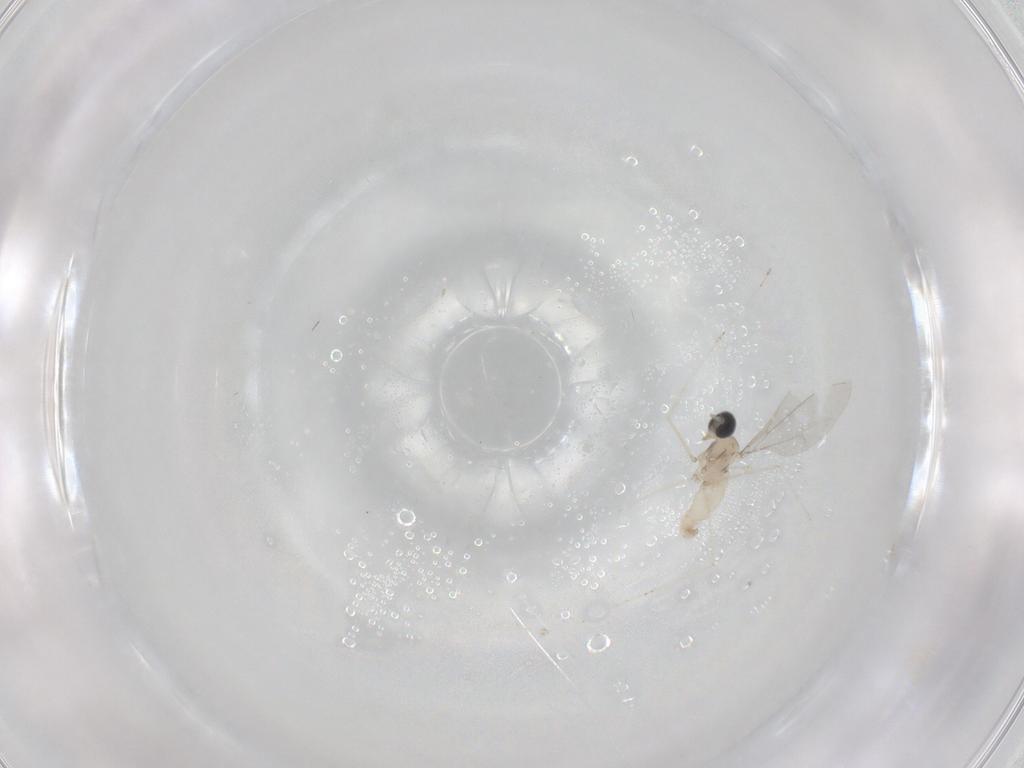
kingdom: Animalia
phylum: Arthropoda
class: Insecta
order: Diptera
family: Cecidomyiidae
